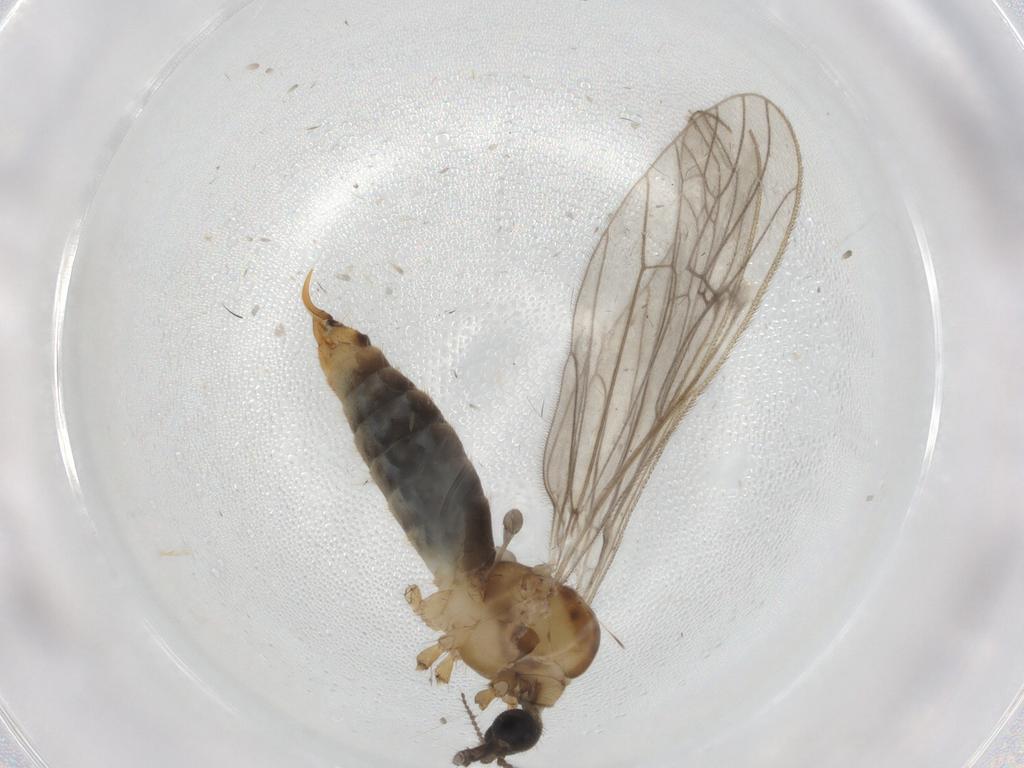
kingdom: Animalia
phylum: Arthropoda
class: Insecta
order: Diptera
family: Limoniidae
